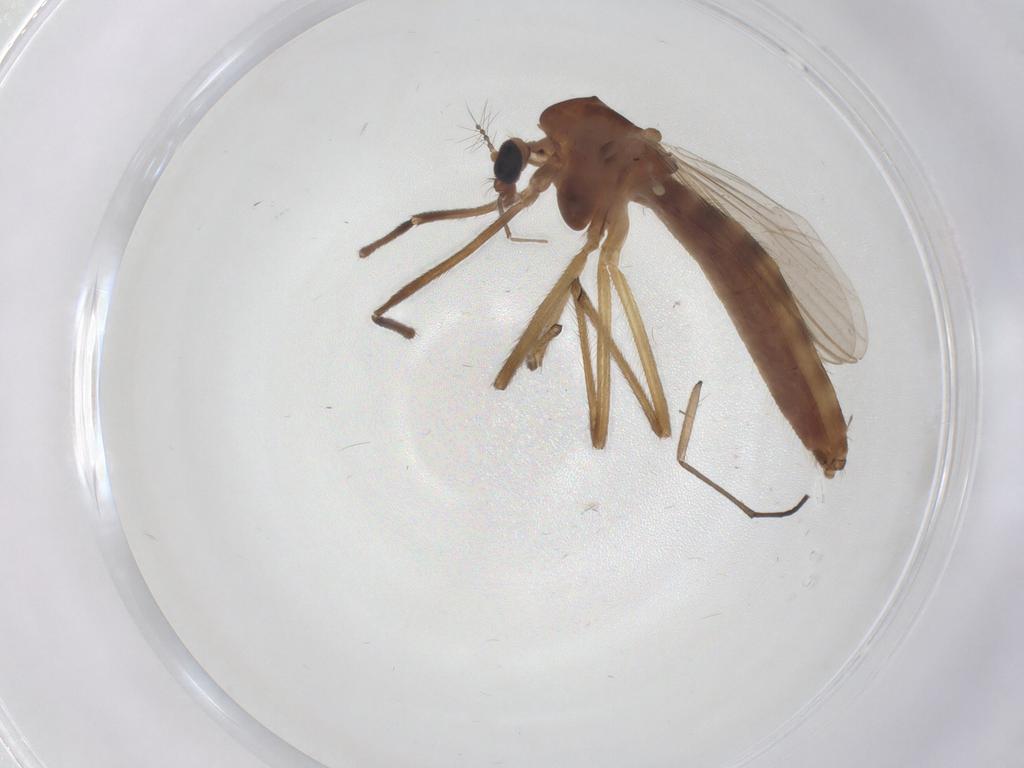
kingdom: Animalia
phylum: Arthropoda
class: Insecta
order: Diptera
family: Chironomidae
